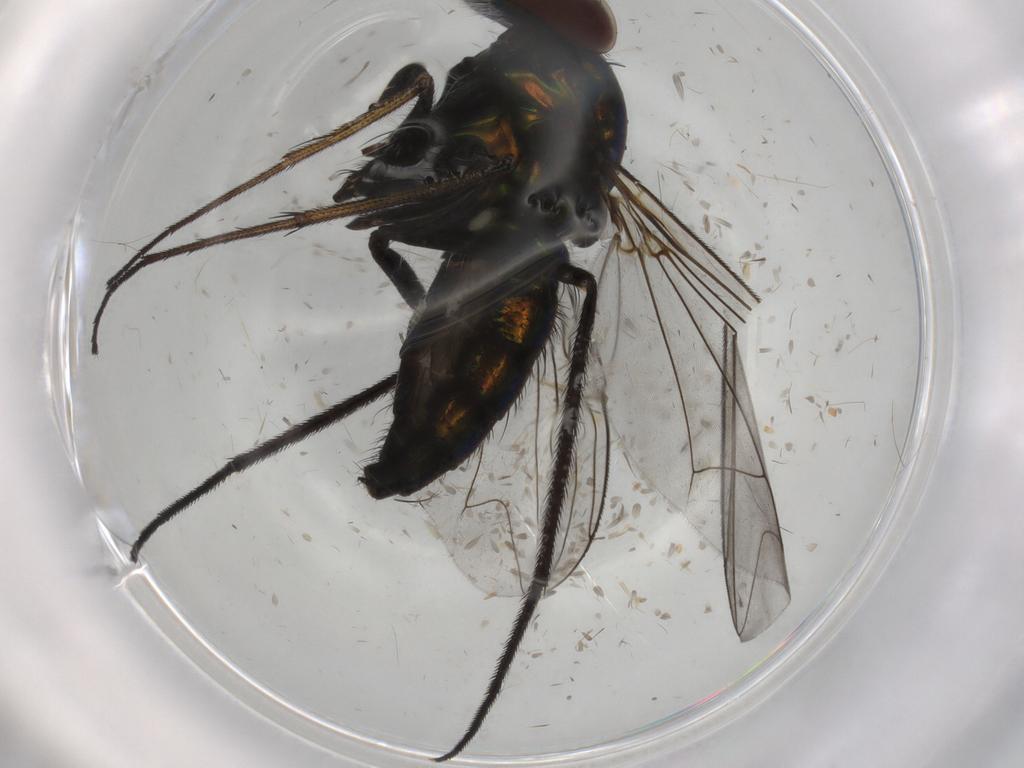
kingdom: Animalia
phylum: Arthropoda
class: Insecta
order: Diptera
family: Dolichopodidae
